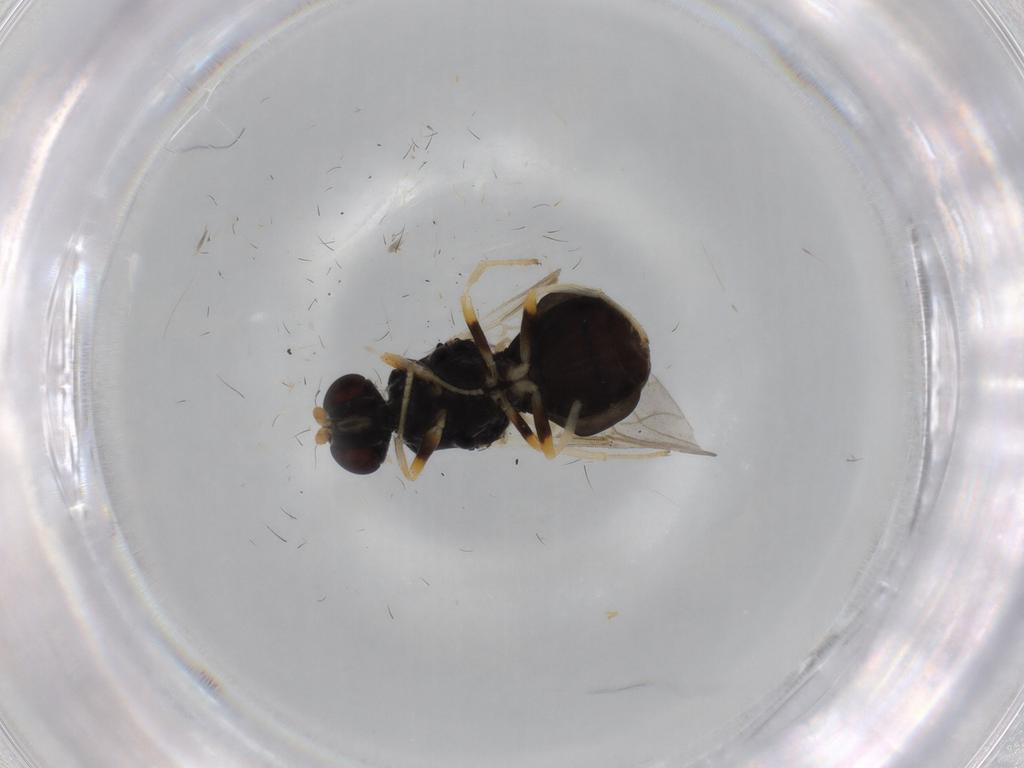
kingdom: Animalia
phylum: Arthropoda
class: Insecta
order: Diptera
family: Stratiomyidae
